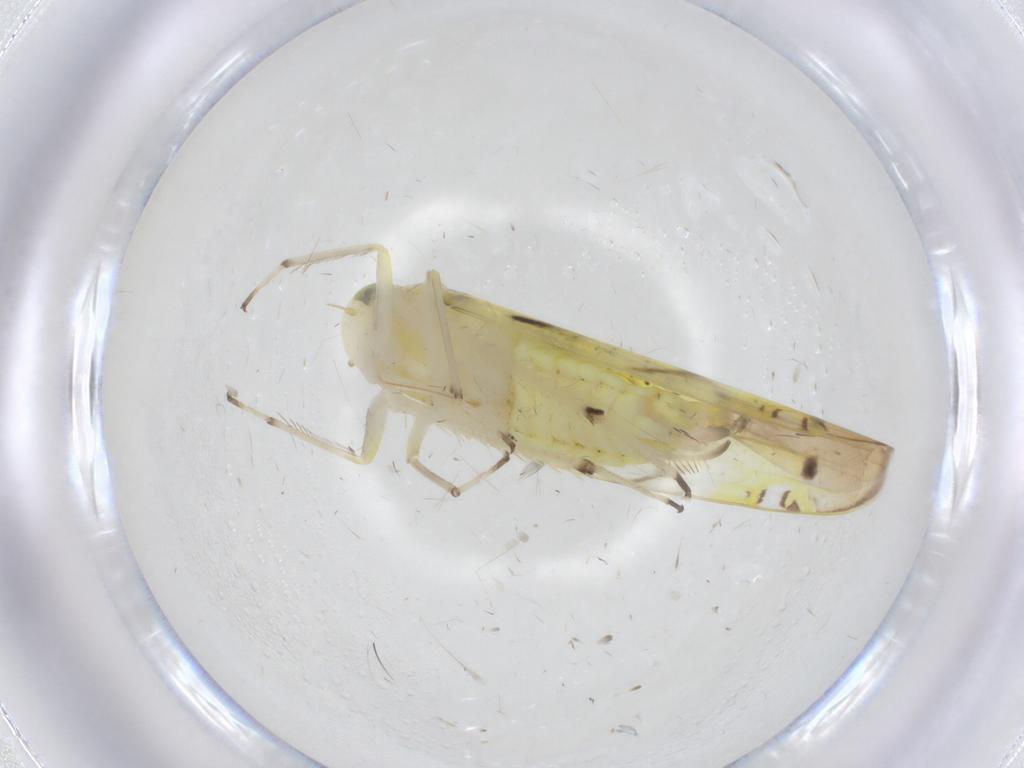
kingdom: Animalia
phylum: Arthropoda
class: Insecta
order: Hemiptera
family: Cicadellidae
